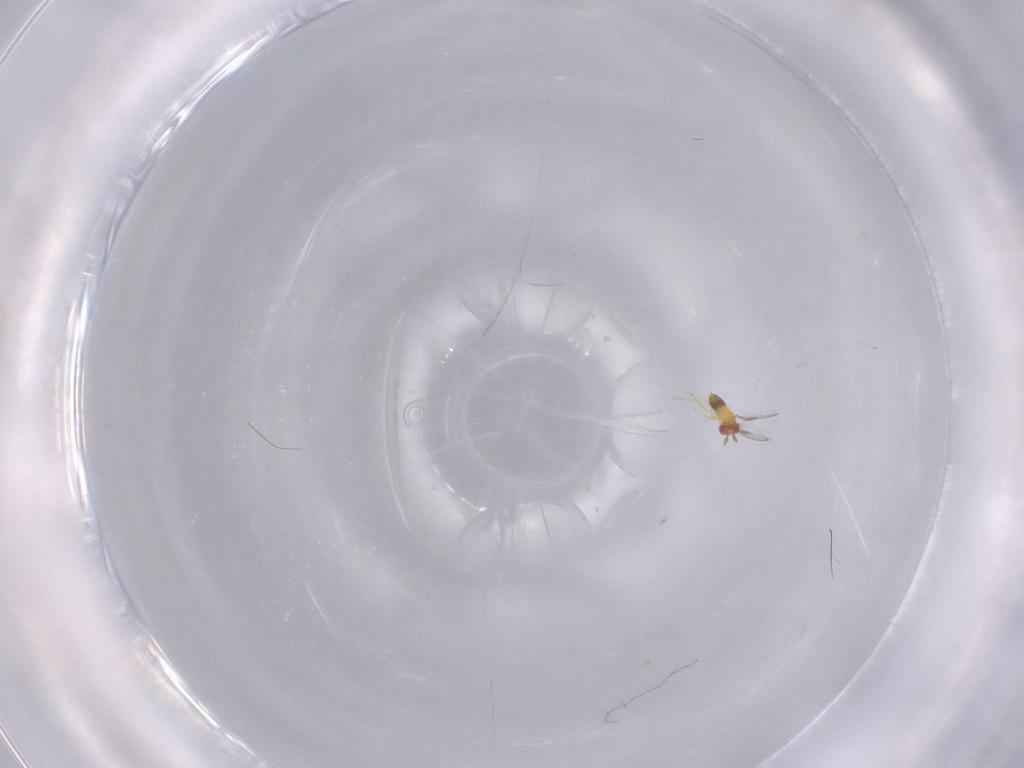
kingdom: Animalia
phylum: Arthropoda
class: Insecta
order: Hymenoptera
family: Trichogrammatidae
